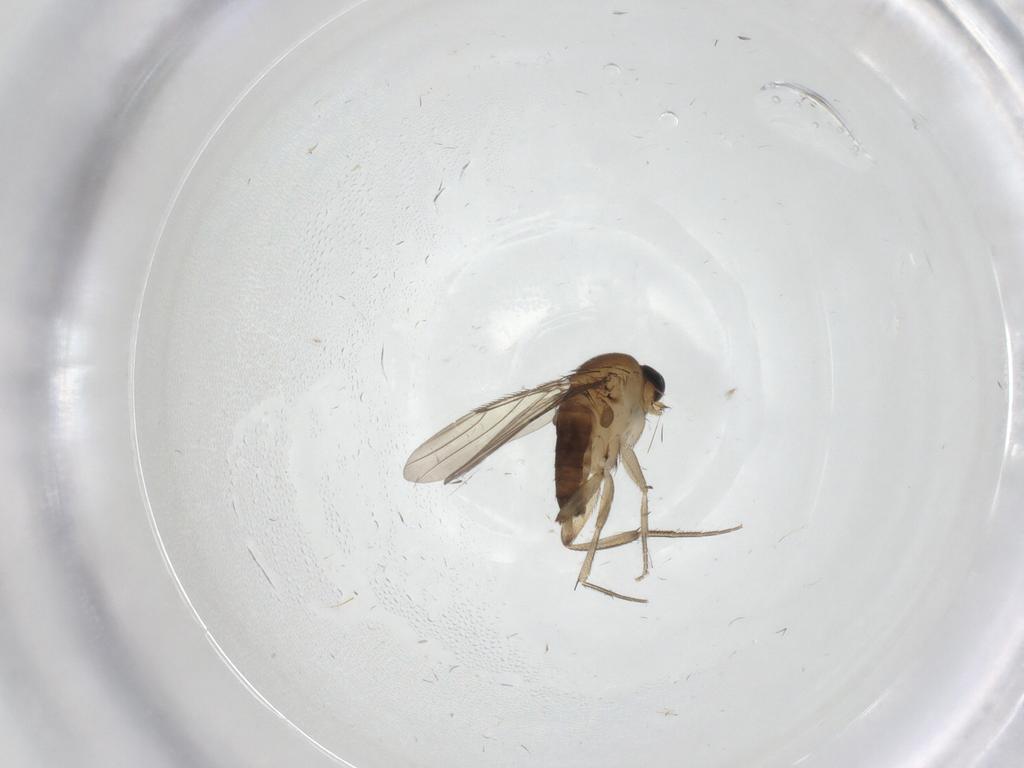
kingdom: Animalia
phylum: Arthropoda
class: Insecta
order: Diptera
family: Phoridae
